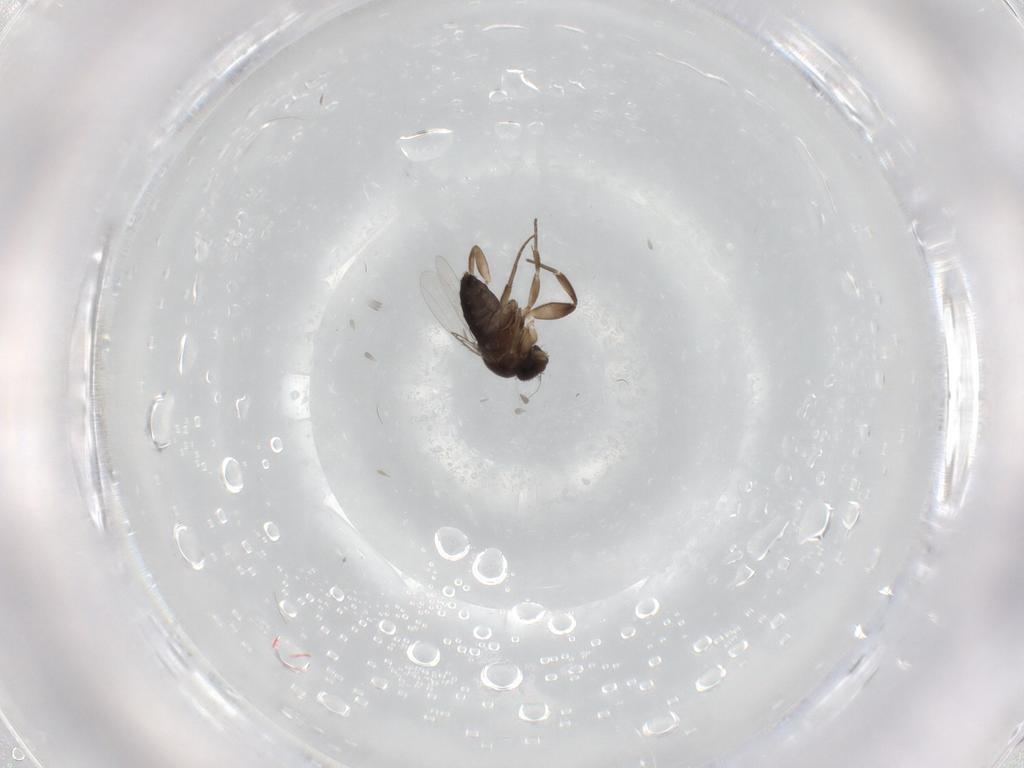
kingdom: Animalia
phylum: Arthropoda
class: Insecta
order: Diptera
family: Phoridae
